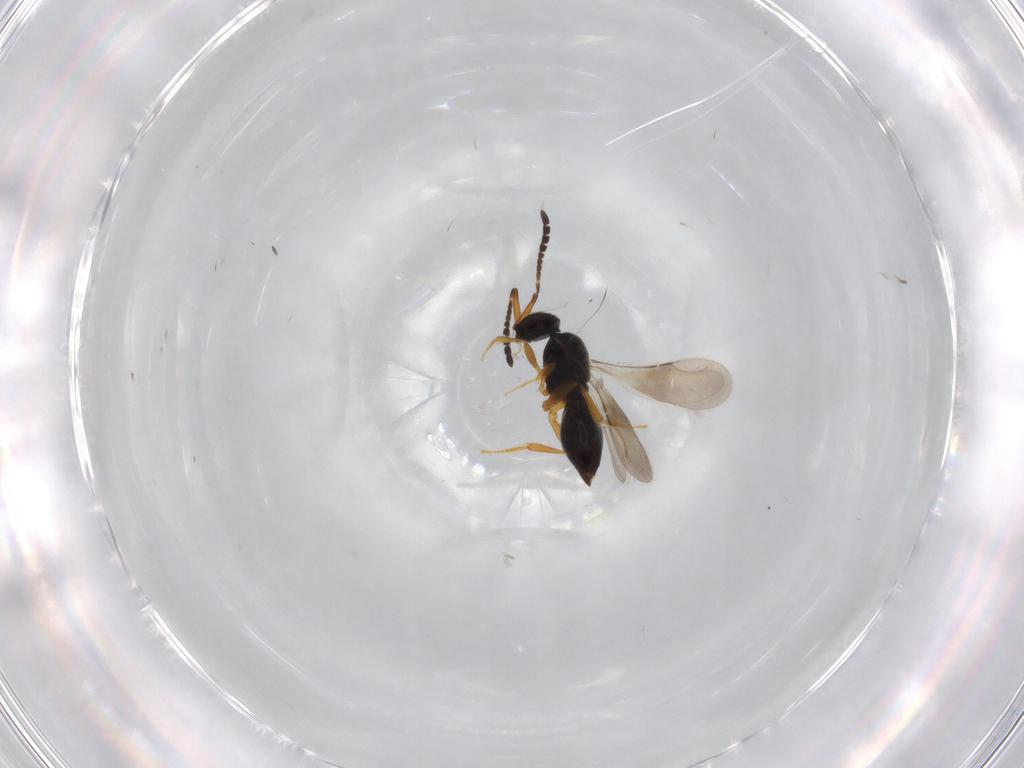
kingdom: Animalia
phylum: Arthropoda
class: Insecta
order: Hymenoptera
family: Ceraphronidae
